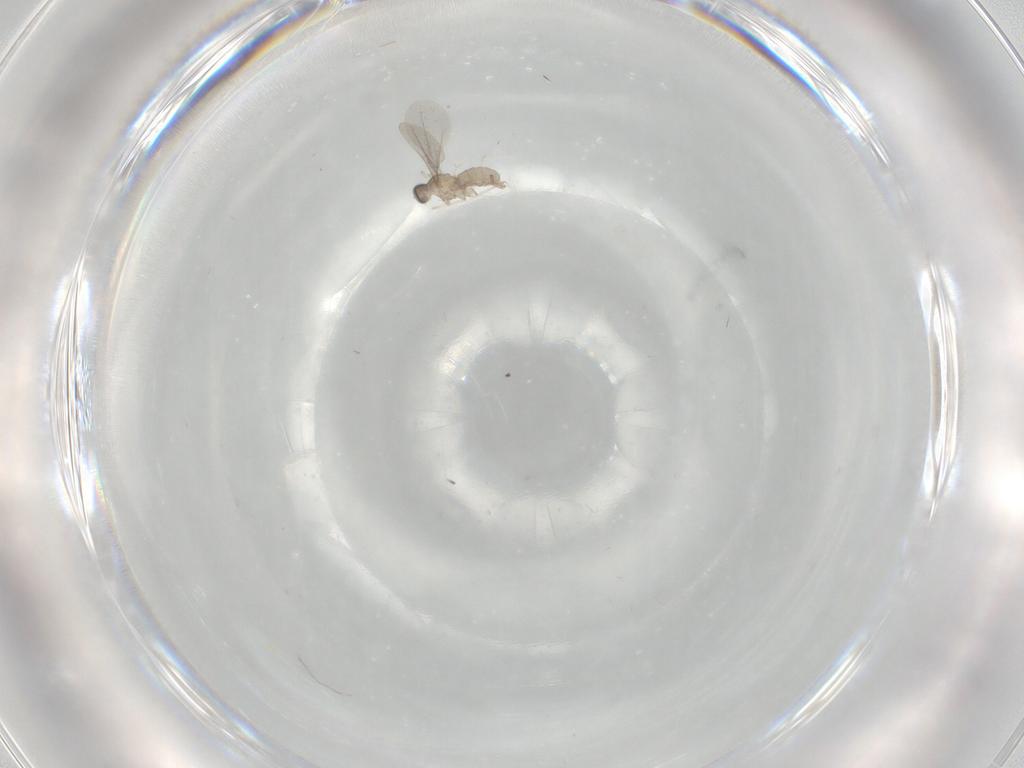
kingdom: Animalia
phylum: Arthropoda
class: Insecta
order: Diptera
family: Cecidomyiidae
